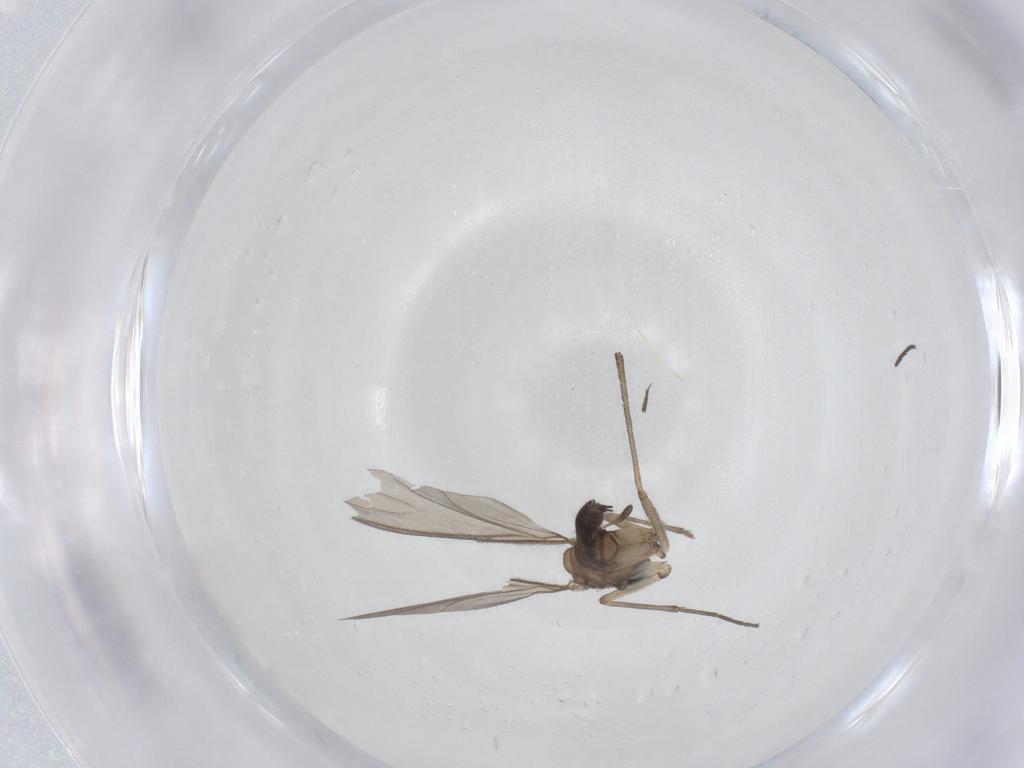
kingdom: Animalia
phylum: Arthropoda
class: Insecta
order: Diptera
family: Sciaridae
